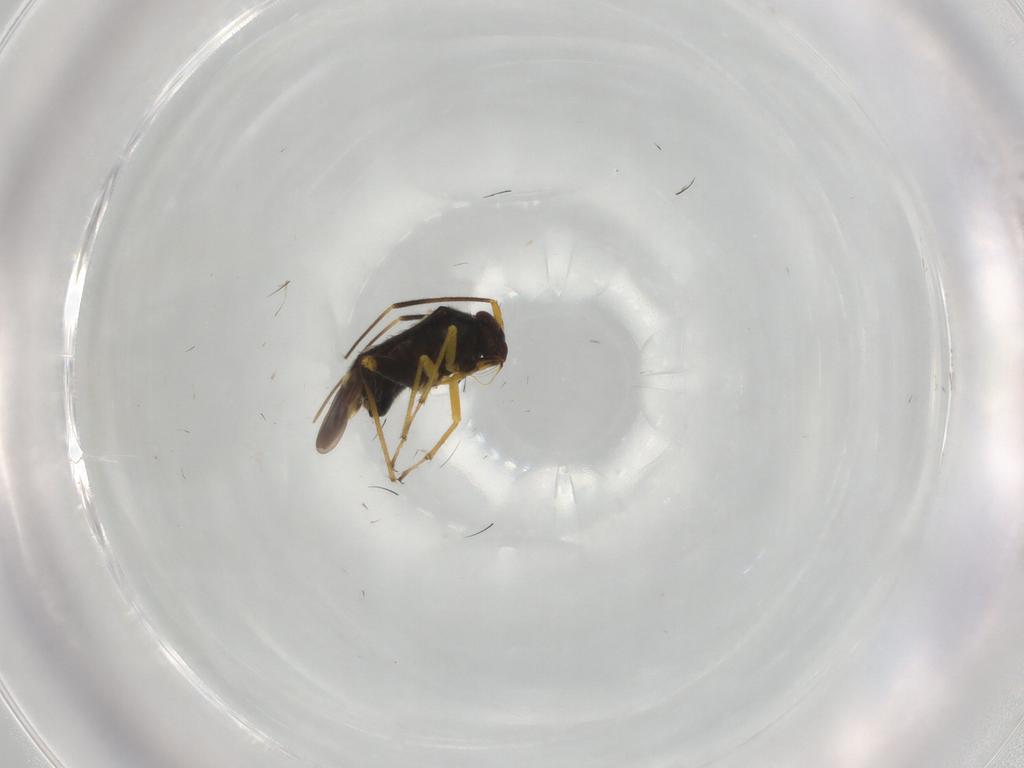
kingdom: Animalia
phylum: Arthropoda
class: Insecta
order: Hemiptera
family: Miridae
